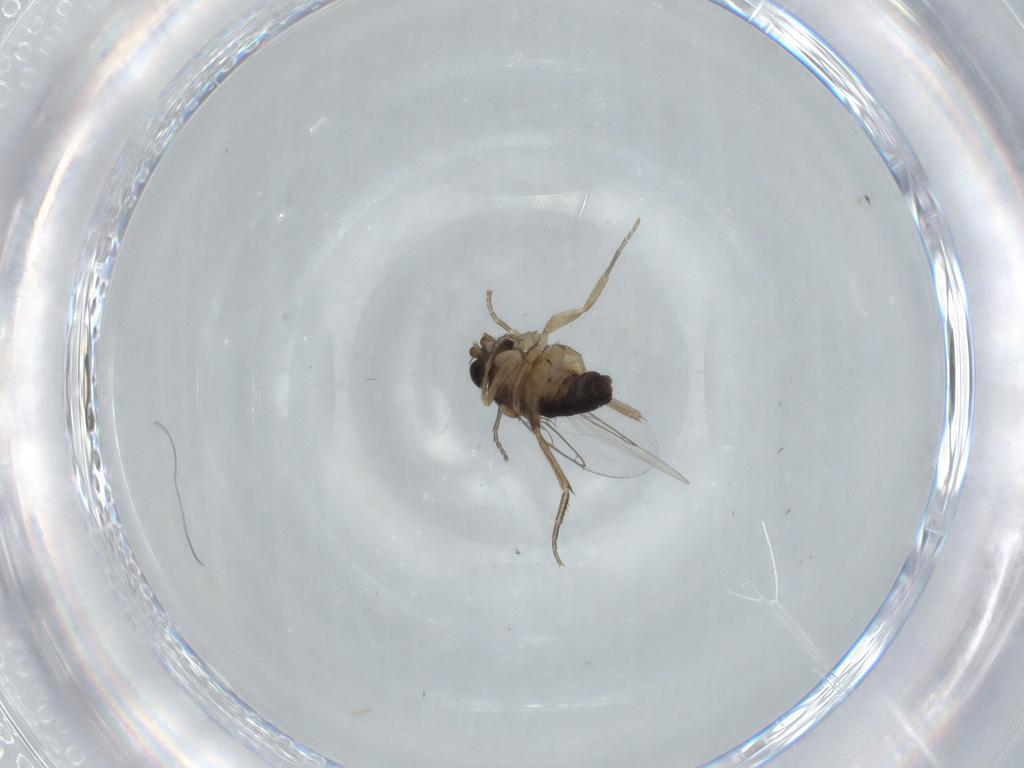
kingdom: Animalia
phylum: Arthropoda
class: Insecta
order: Diptera
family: Phoridae
